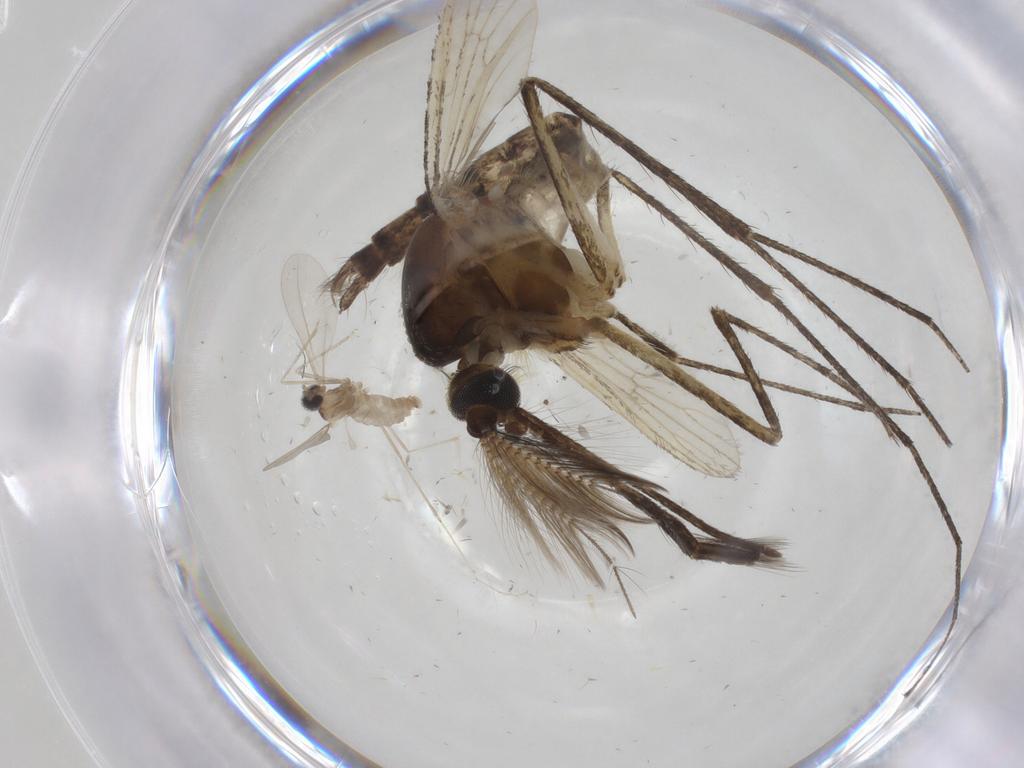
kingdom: Animalia
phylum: Arthropoda
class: Insecta
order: Diptera
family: Culicidae
